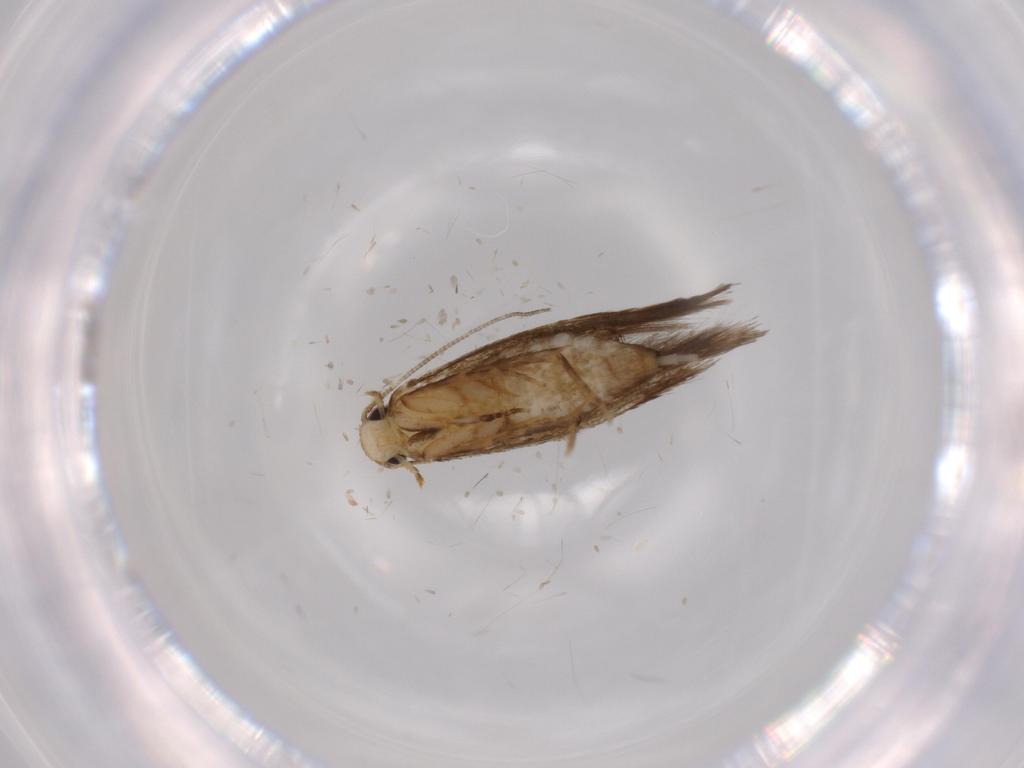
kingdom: Animalia
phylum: Arthropoda
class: Insecta
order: Lepidoptera
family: Tineidae
